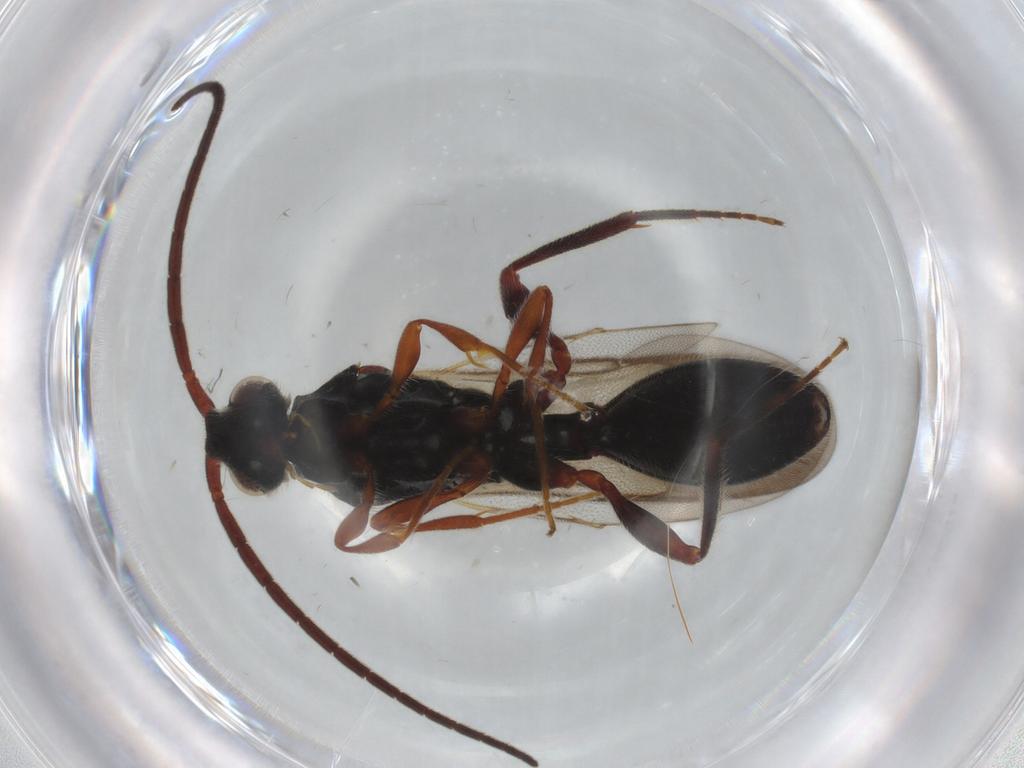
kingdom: Animalia
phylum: Arthropoda
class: Insecta
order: Hymenoptera
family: Diapriidae
